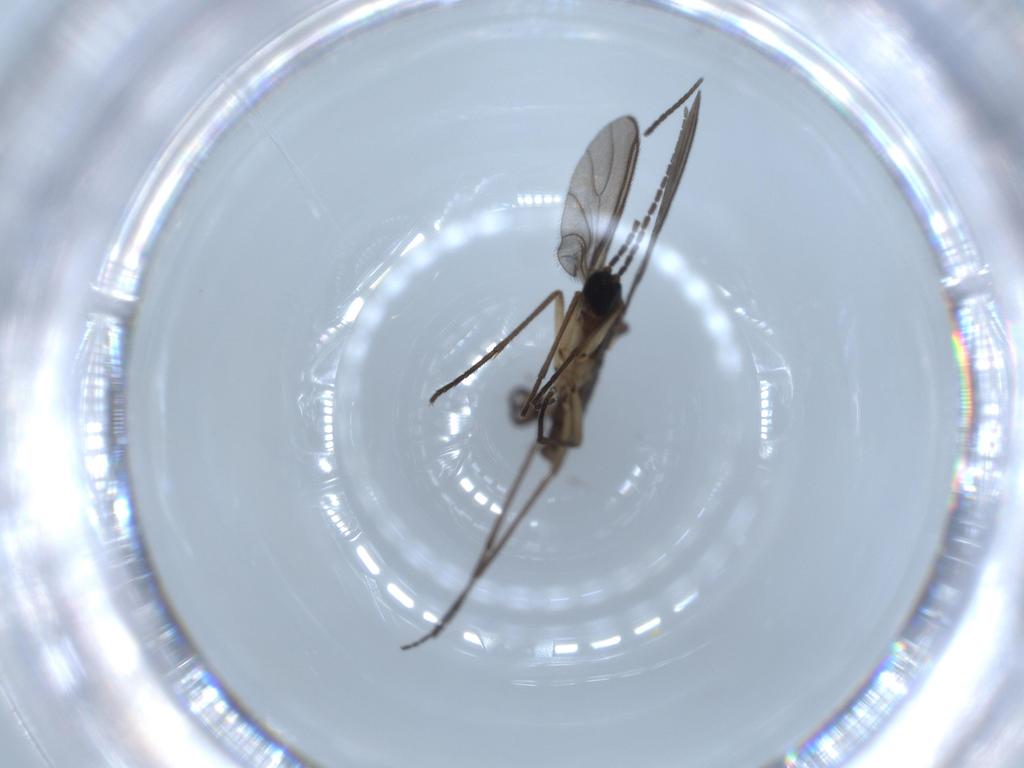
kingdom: Animalia
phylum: Arthropoda
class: Insecta
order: Diptera
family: Sciaridae
